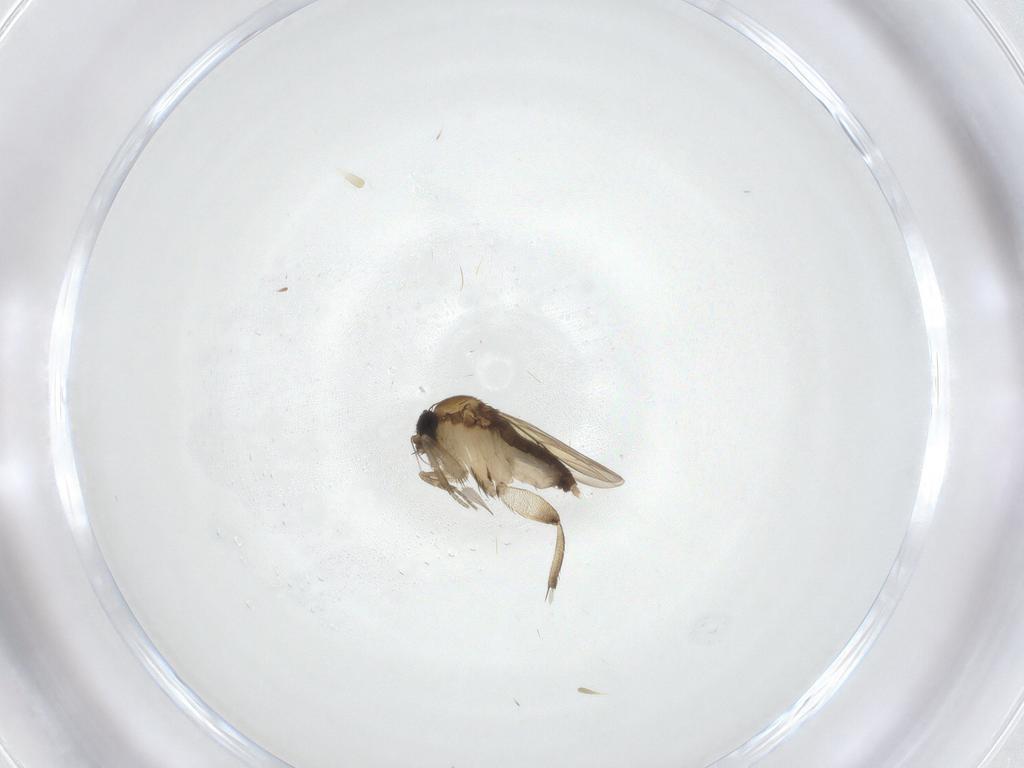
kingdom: Animalia
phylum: Arthropoda
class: Insecta
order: Diptera
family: Phoridae
